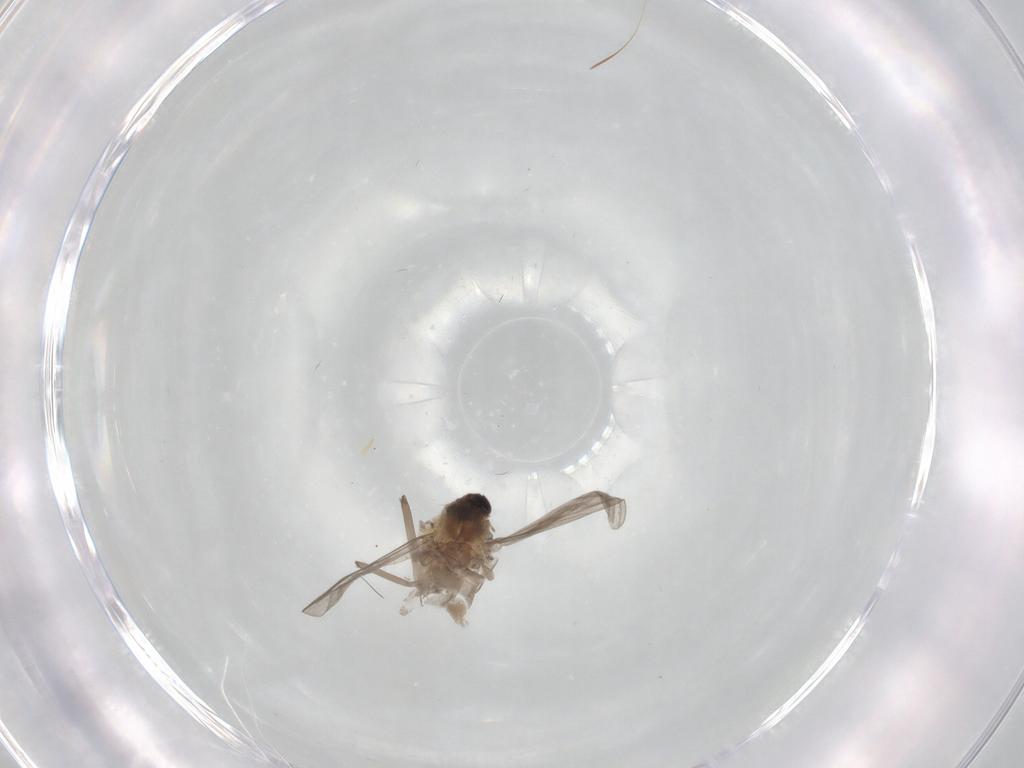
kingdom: Animalia
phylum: Arthropoda
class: Insecta
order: Diptera
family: Chironomidae
